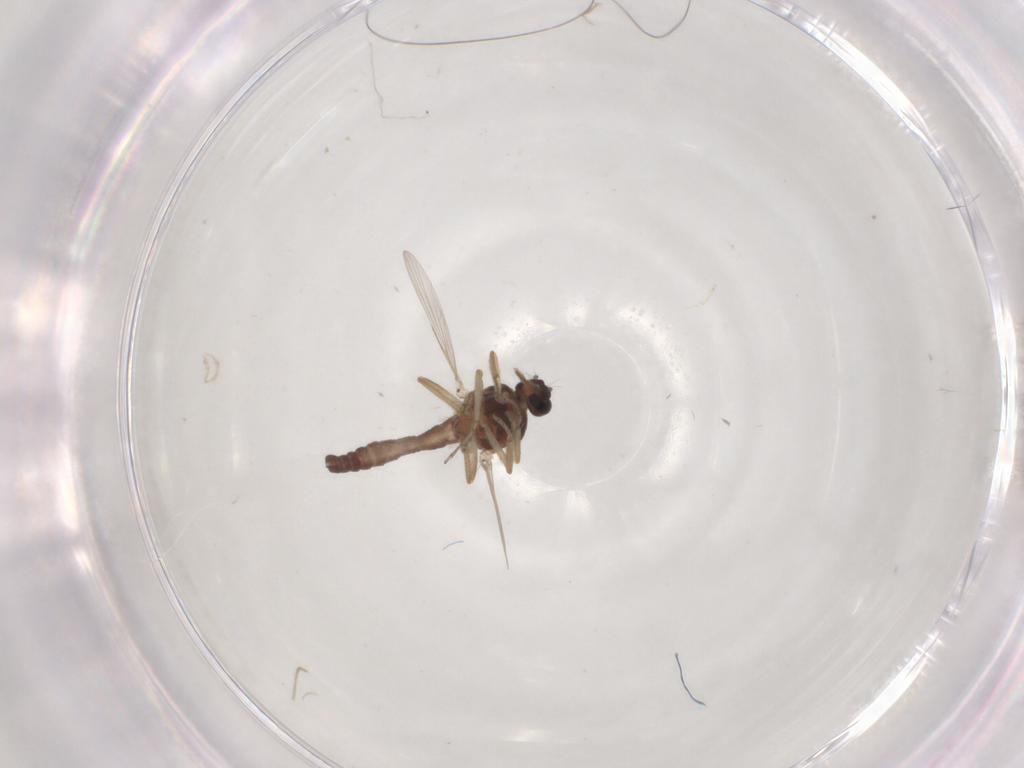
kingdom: Animalia
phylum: Arthropoda
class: Insecta
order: Diptera
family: Ceratopogonidae
